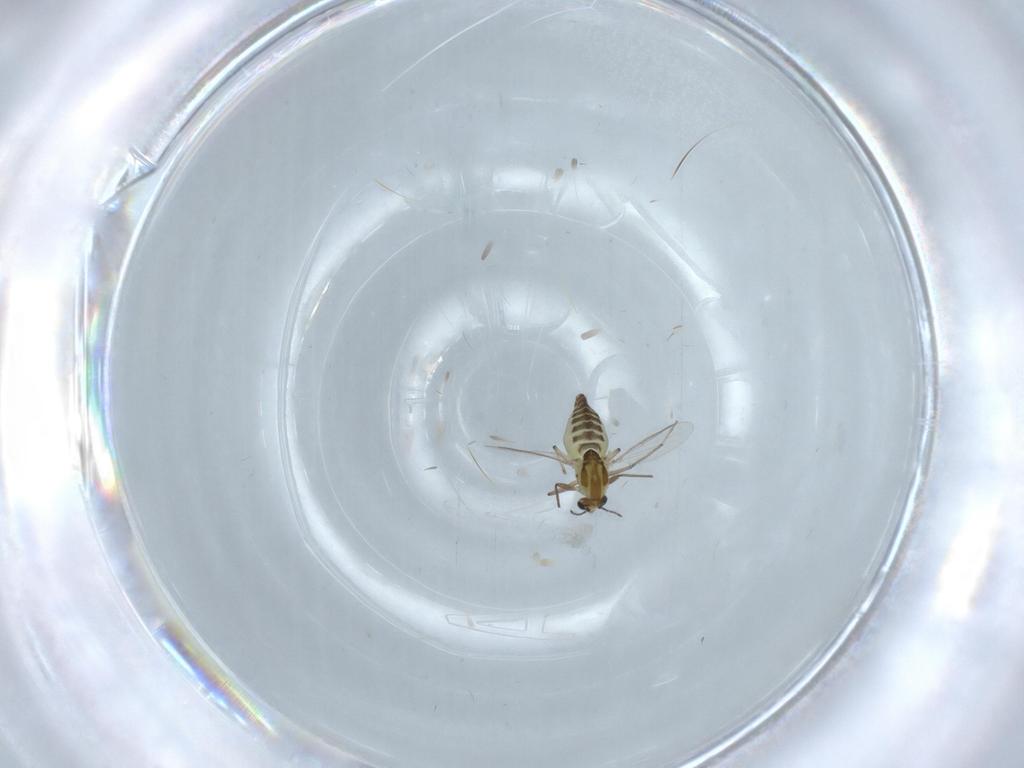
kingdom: Animalia
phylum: Arthropoda
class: Insecta
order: Diptera
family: Chironomidae
